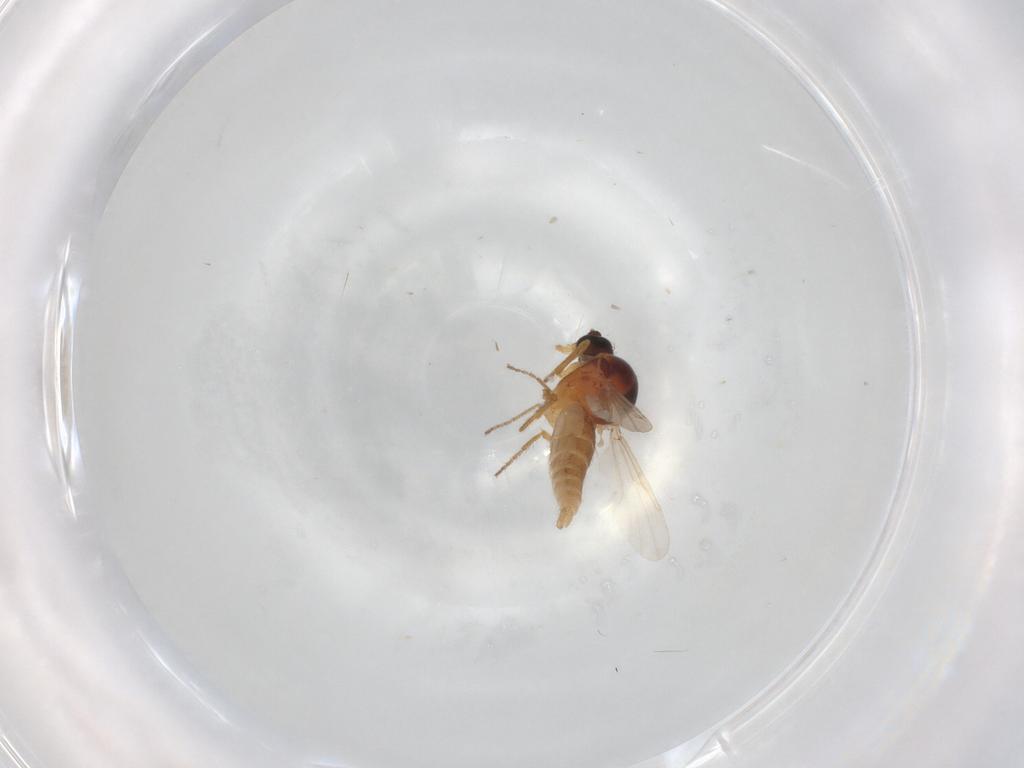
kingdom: Animalia
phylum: Arthropoda
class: Insecta
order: Diptera
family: Ceratopogonidae
